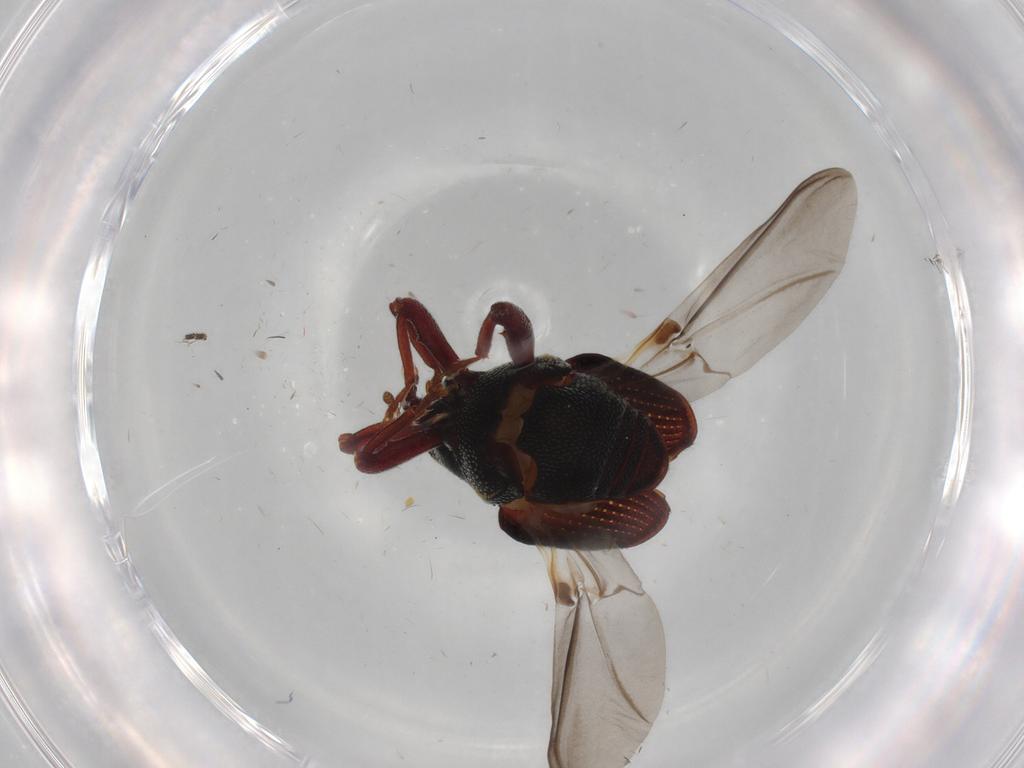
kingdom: Animalia
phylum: Arthropoda
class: Insecta
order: Coleoptera
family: Curculionidae
